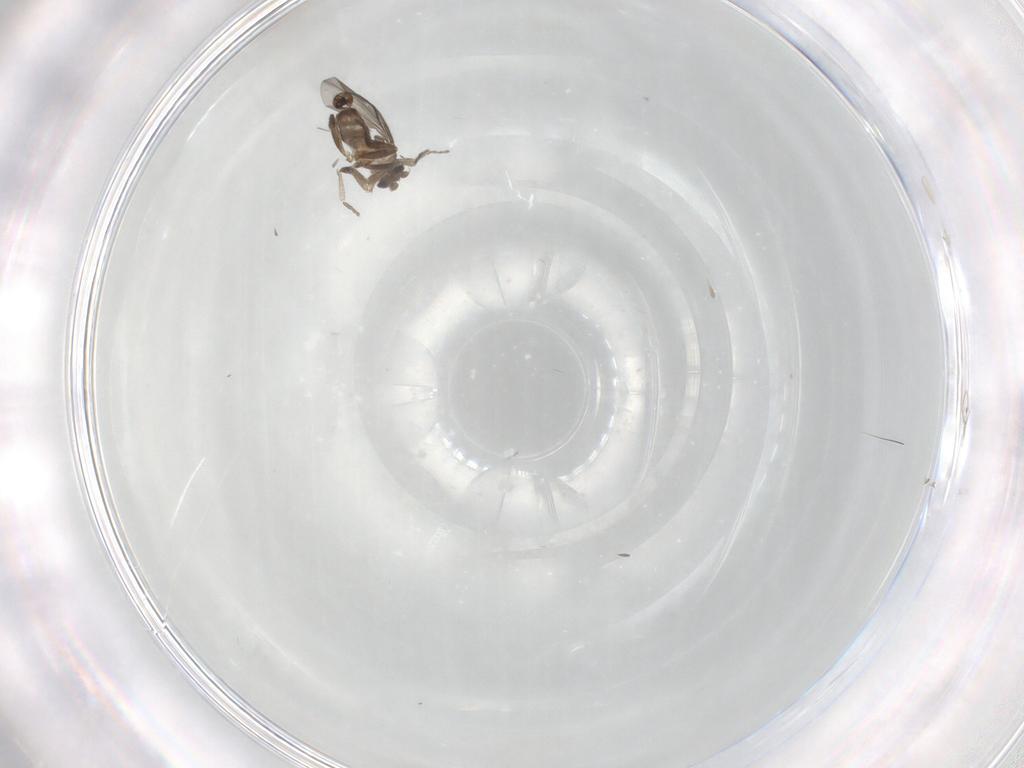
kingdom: Animalia
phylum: Arthropoda
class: Insecta
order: Diptera
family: Cecidomyiidae
